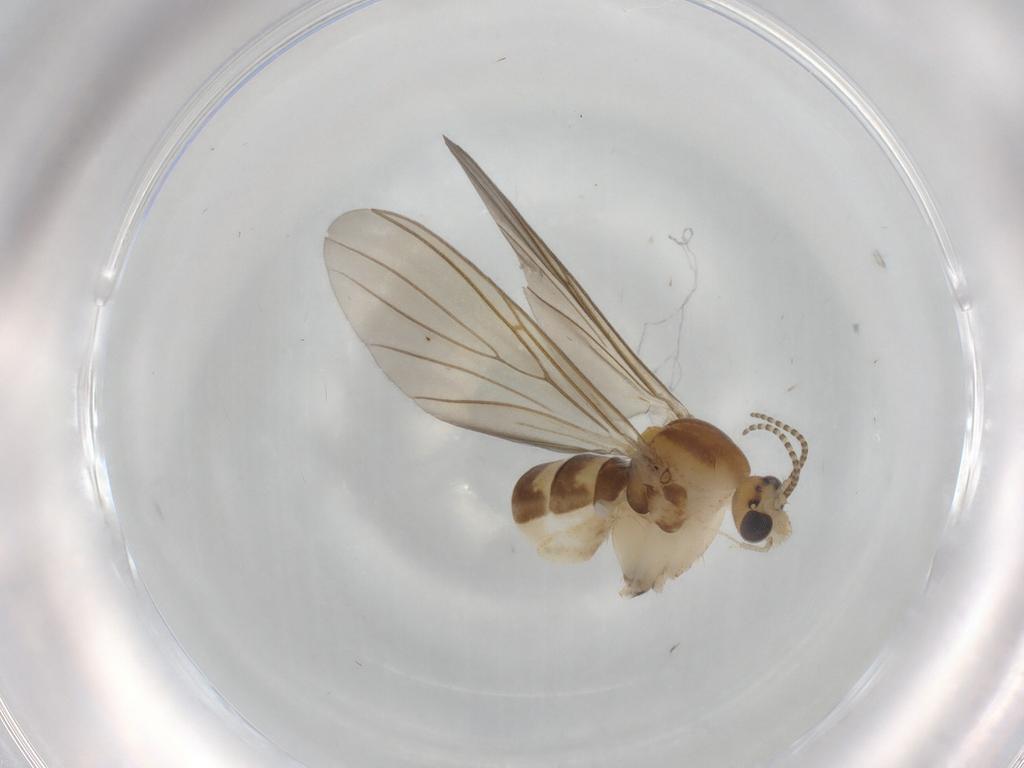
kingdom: Animalia
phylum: Arthropoda
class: Insecta
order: Diptera
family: Mycetophilidae
